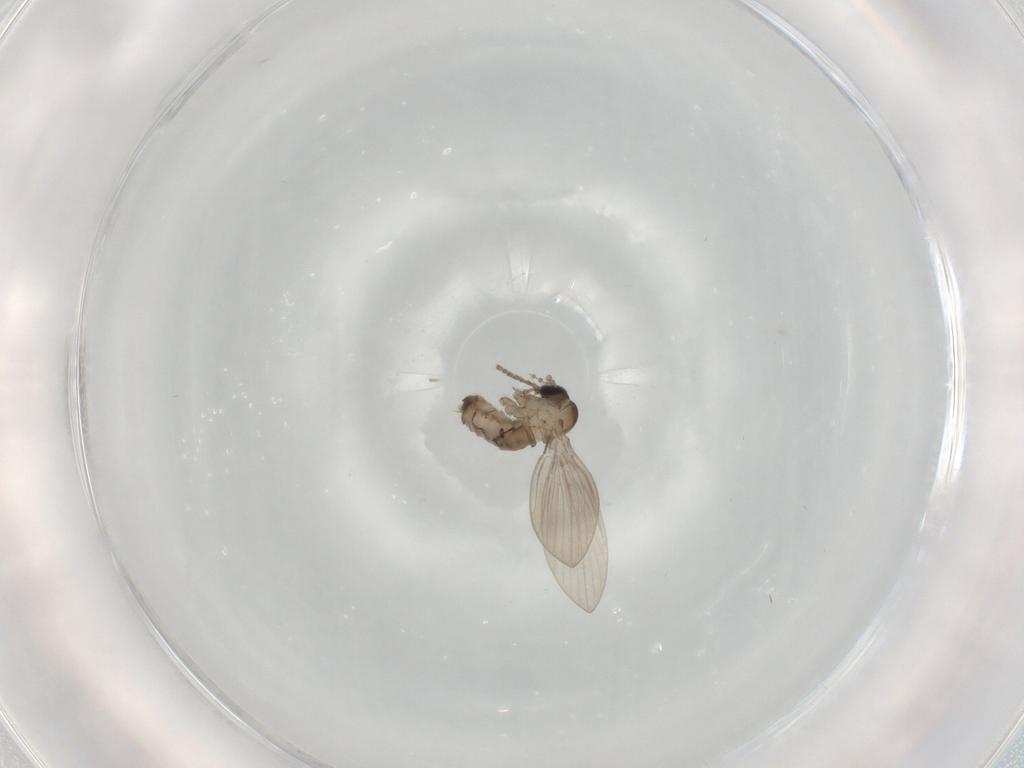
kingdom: Animalia
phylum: Arthropoda
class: Insecta
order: Diptera
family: Psychodidae
